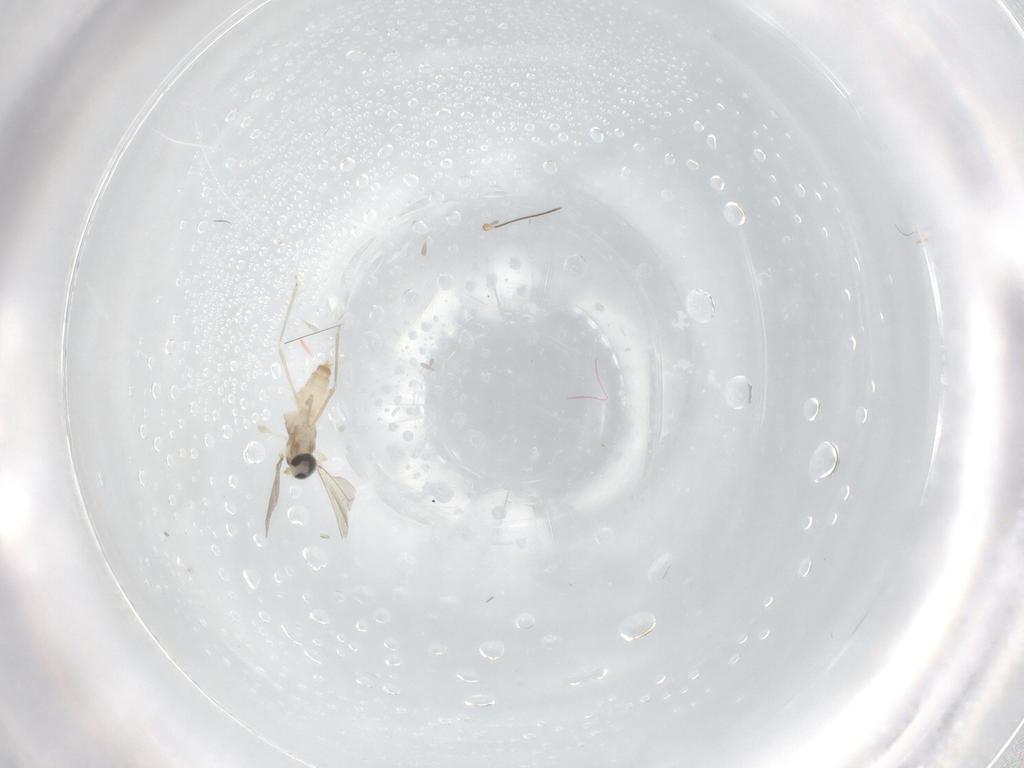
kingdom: Animalia
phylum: Arthropoda
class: Insecta
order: Diptera
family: Cecidomyiidae
